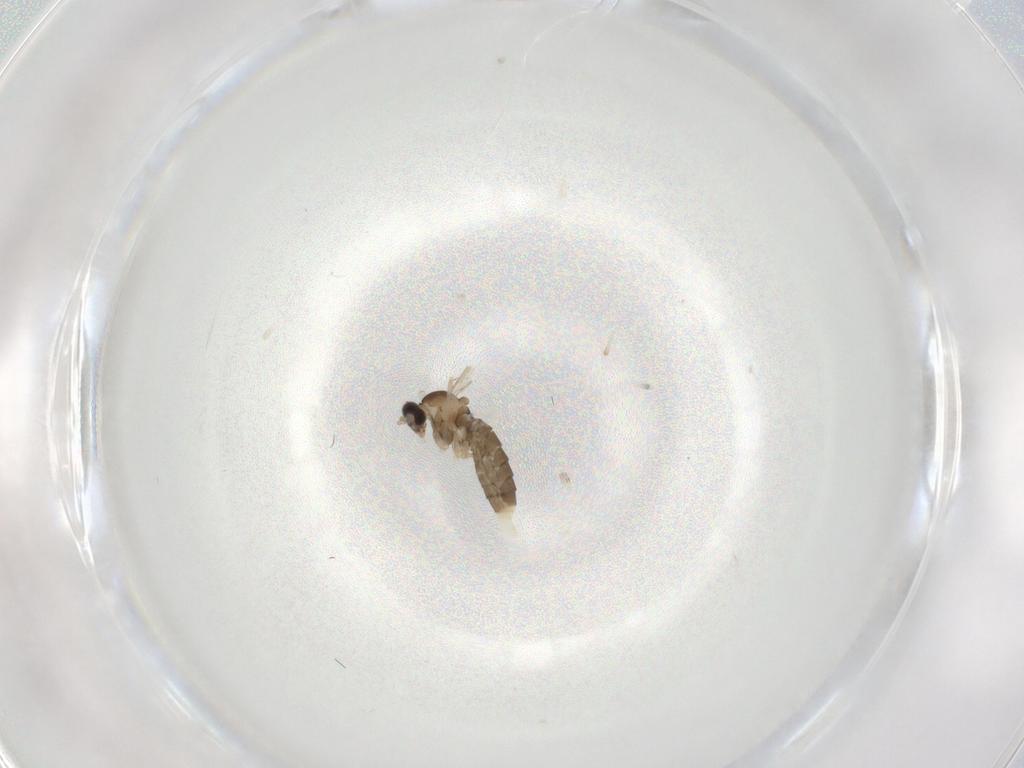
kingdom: Animalia
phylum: Arthropoda
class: Insecta
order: Diptera
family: Cecidomyiidae
